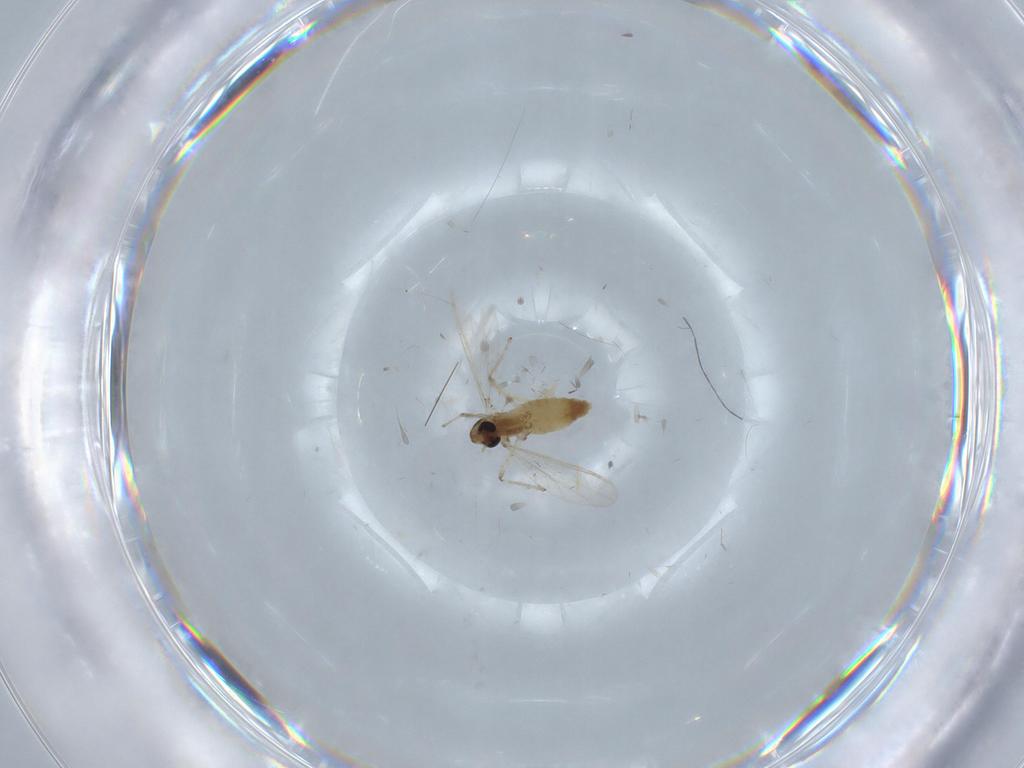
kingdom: Animalia
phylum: Arthropoda
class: Insecta
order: Diptera
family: Chironomidae
